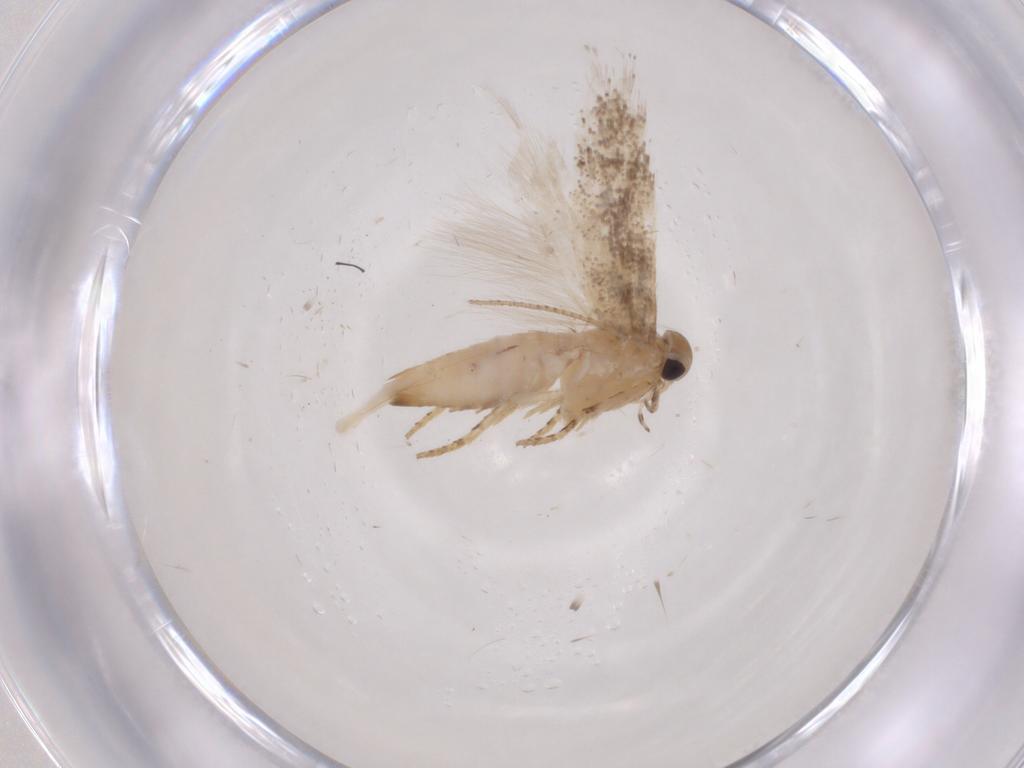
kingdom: Animalia
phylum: Arthropoda
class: Insecta
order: Lepidoptera
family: Gelechiidae
